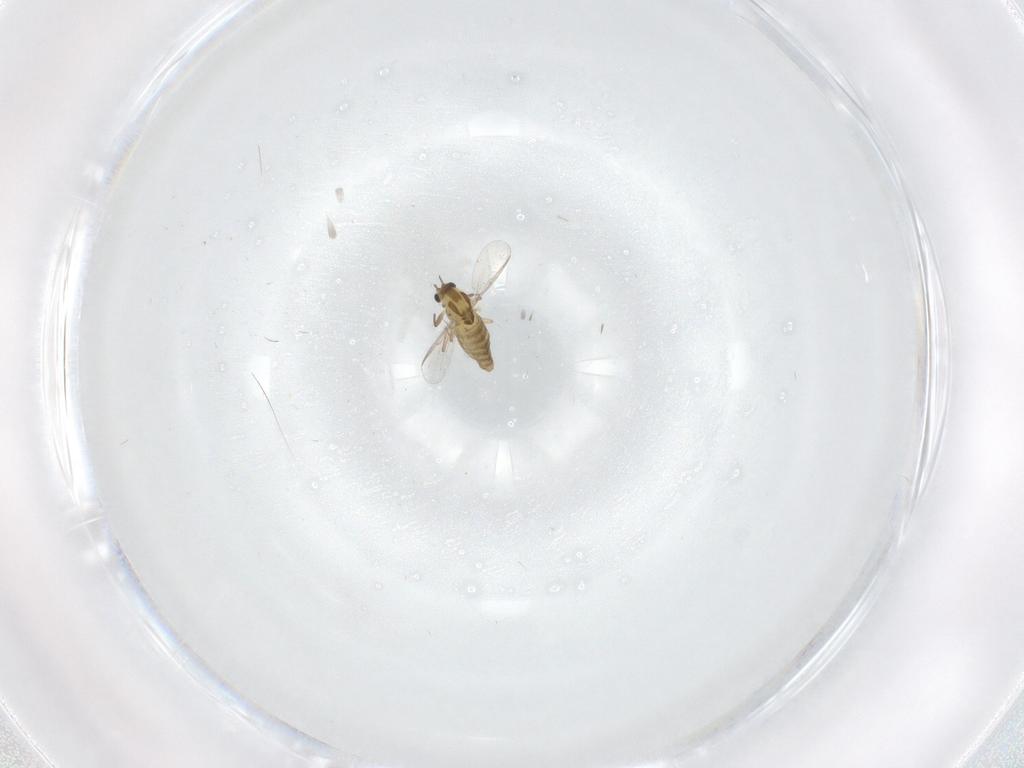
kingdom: Animalia
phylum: Arthropoda
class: Insecta
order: Diptera
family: Chironomidae
